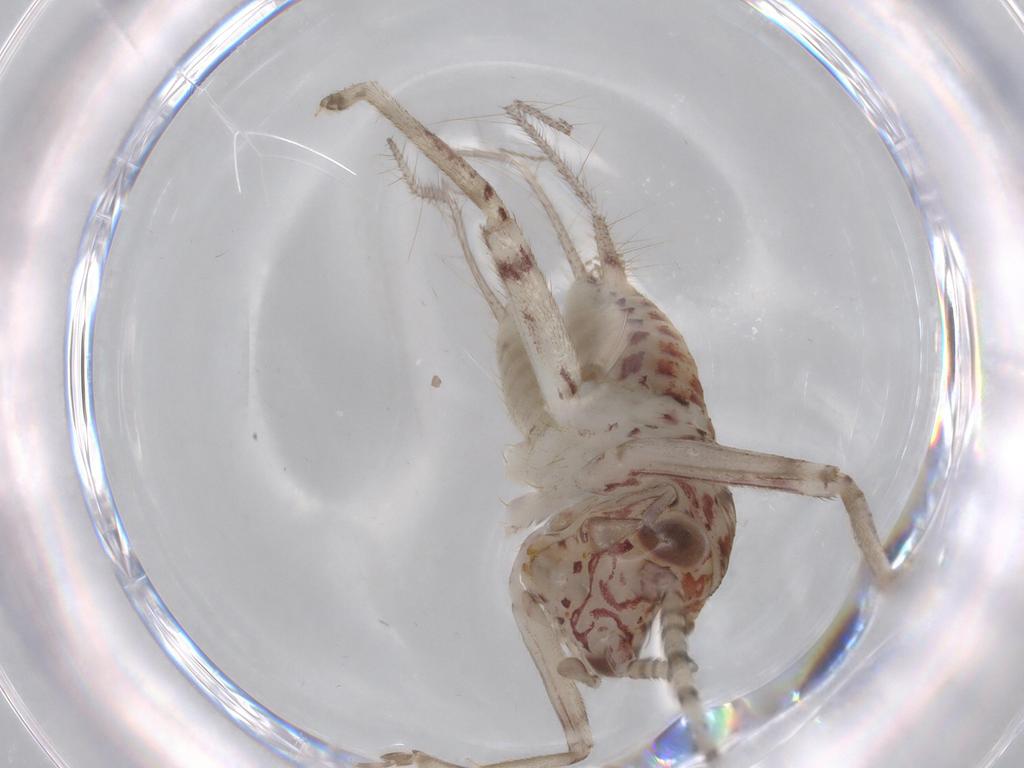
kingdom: Animalia
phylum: Arthropoda
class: Insecta
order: Orthoptera
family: Trigonidiidae
